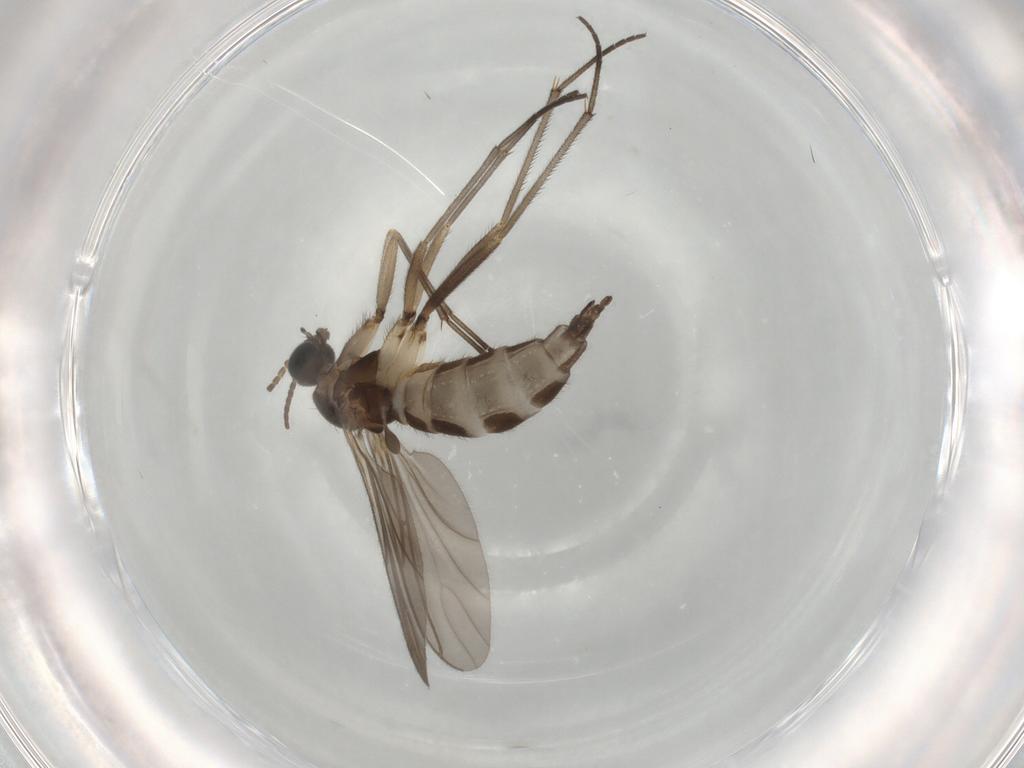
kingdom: Animalia
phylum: Arthropoda
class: Insecta
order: Diptera
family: Sciaridae
